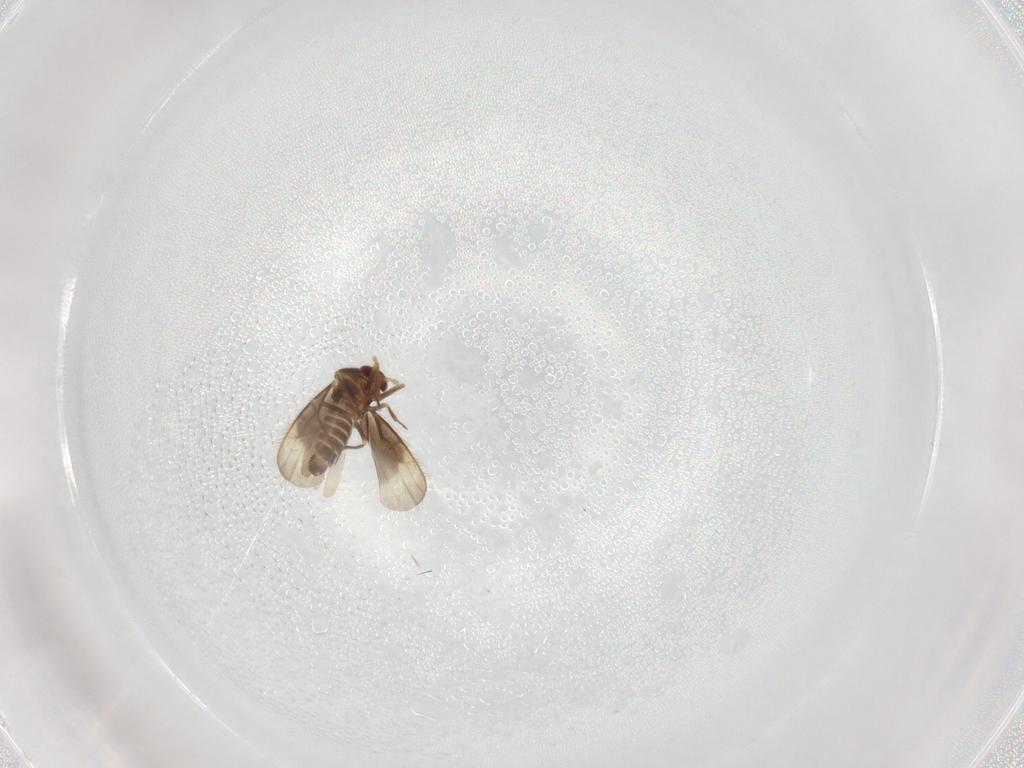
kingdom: Animalia
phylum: Arthropoda
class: Insecta
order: Hemiptera
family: Schizopteridae
